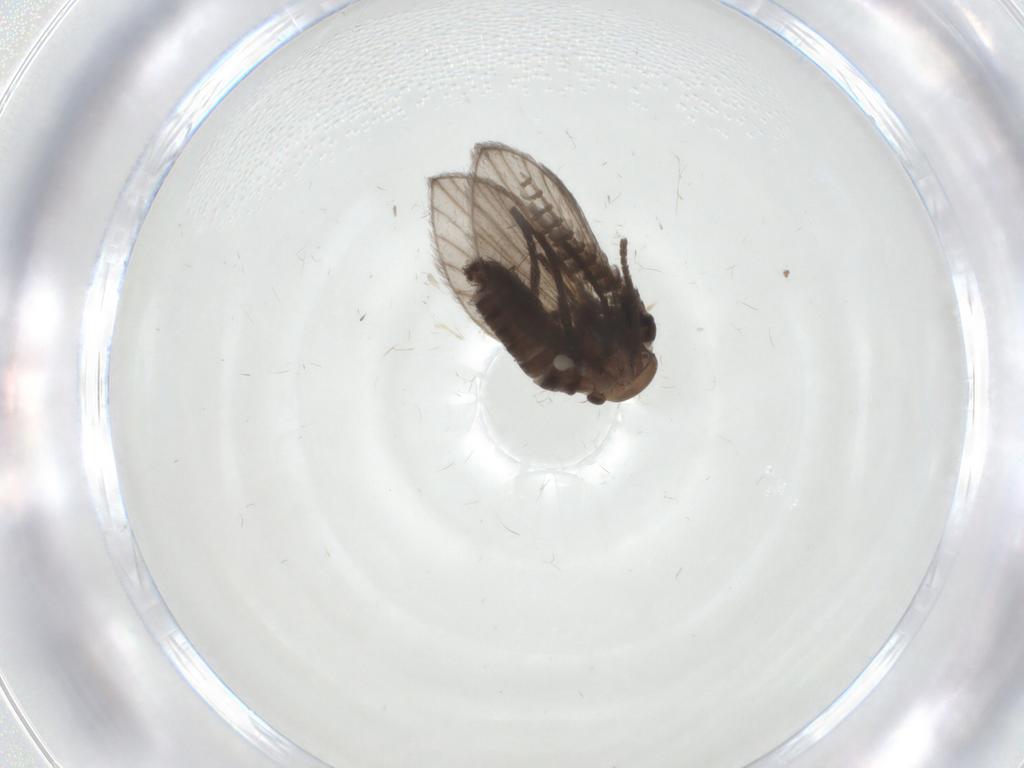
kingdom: Animalia
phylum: Arthropoda
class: Insecta
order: Diptera
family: Psychodidae
